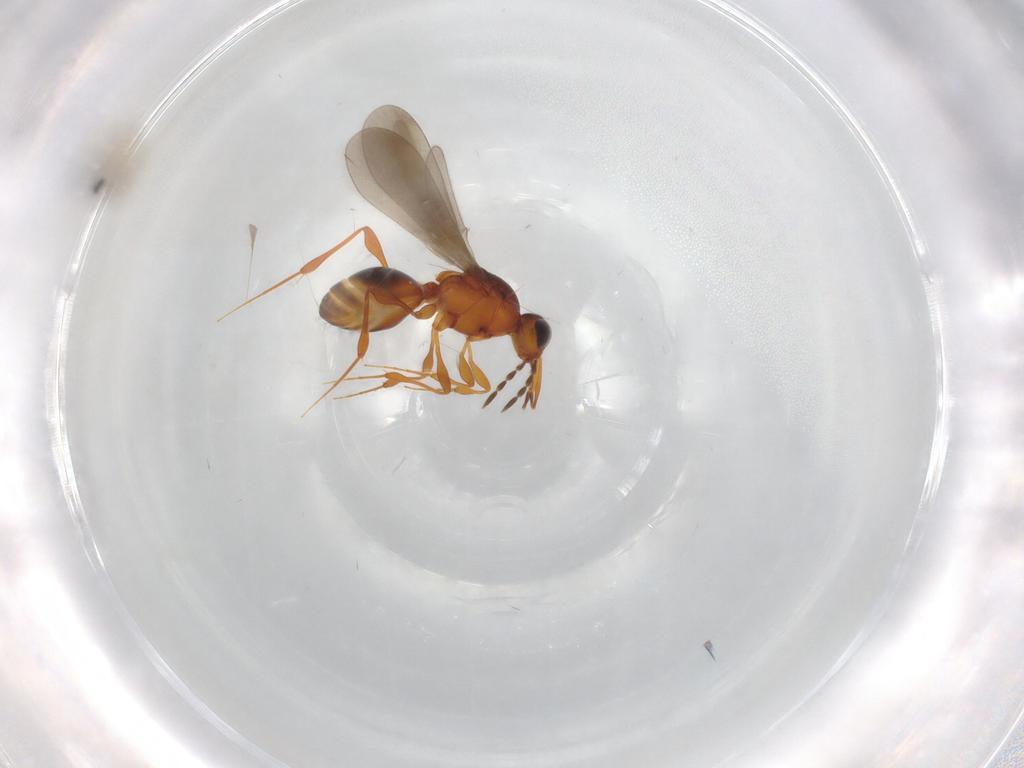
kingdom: Animalia
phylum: Arthropoda
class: Insecta
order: Hymenoptera
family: Platygastridae
